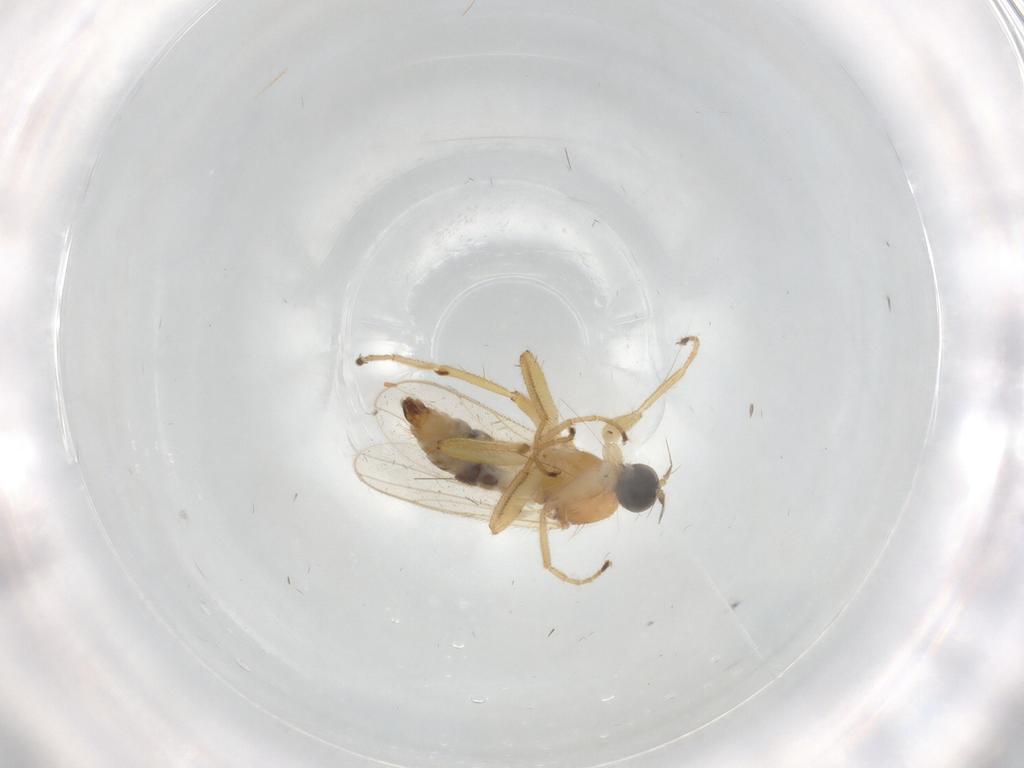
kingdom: Animalia
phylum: Arthropoda
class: Insecta
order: Diptera
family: Hybotidae
